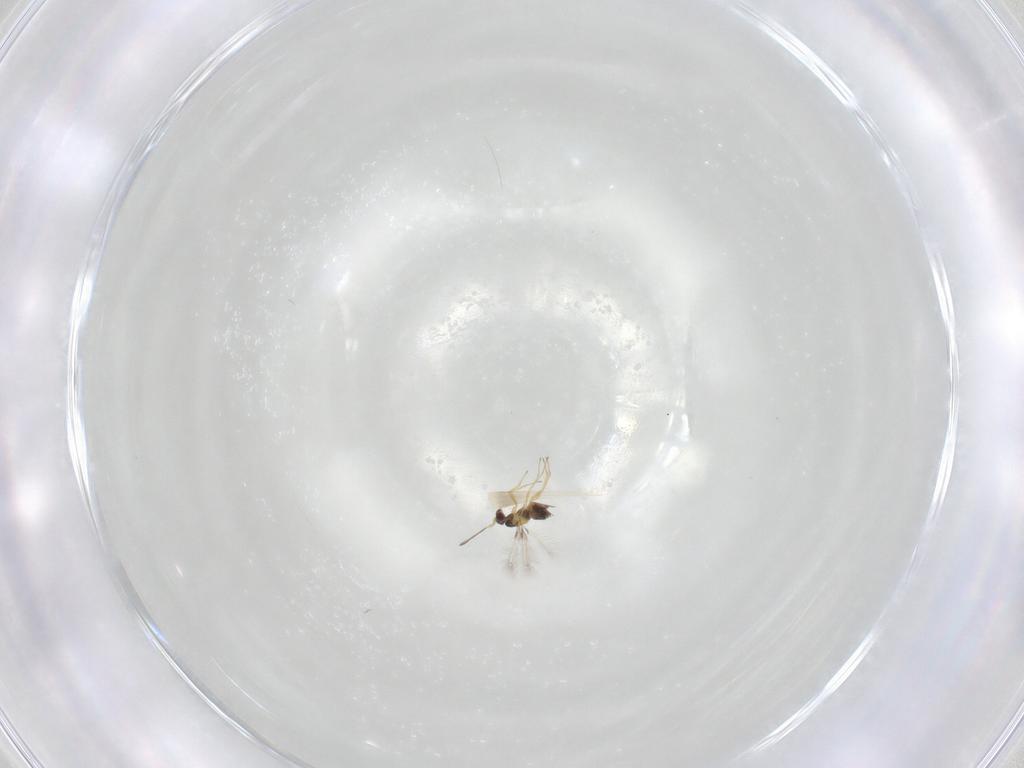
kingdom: Animalia
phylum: Arthropoda
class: Insecta
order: Hymenoptera
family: Mymaridae
